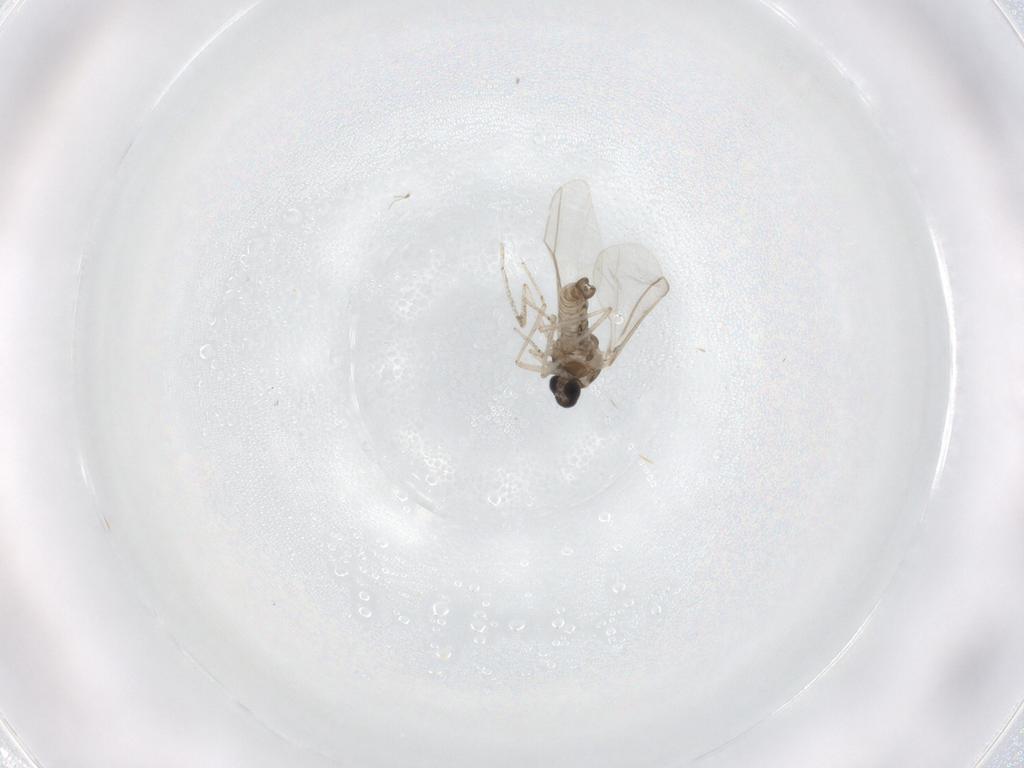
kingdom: Animalia
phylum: Arthropoda
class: Insecta
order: Diptera
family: Cecidomyiidae
